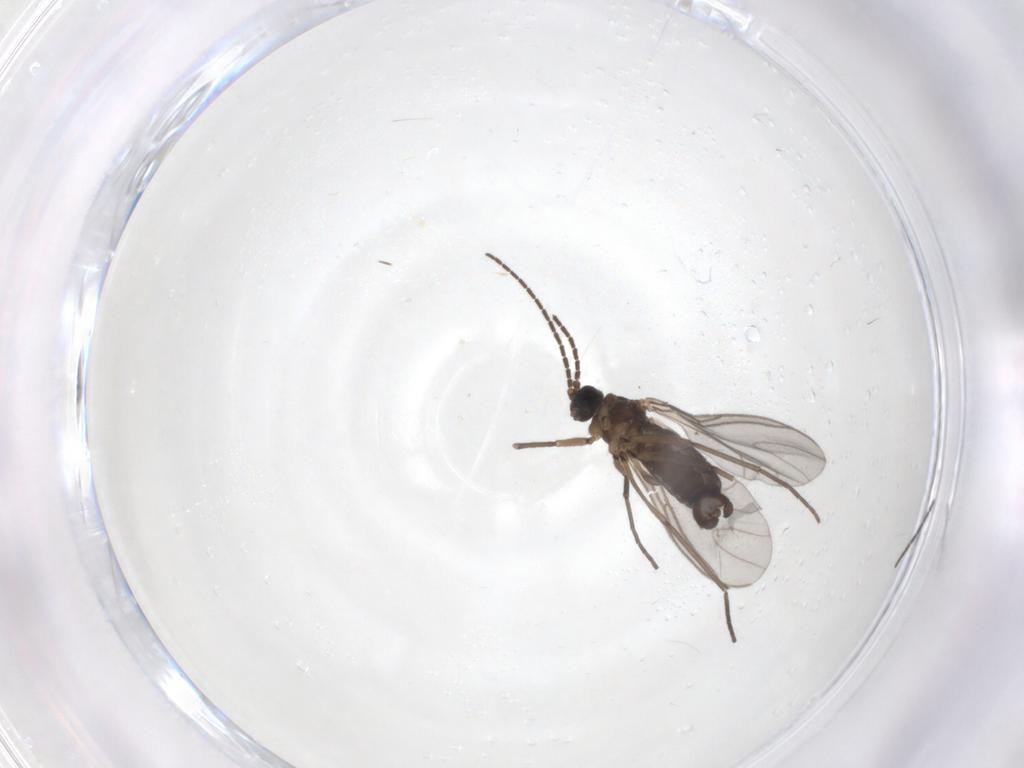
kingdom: Animalia
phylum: Arthropoda
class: Insecta
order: Diptera
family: Sciaridae
